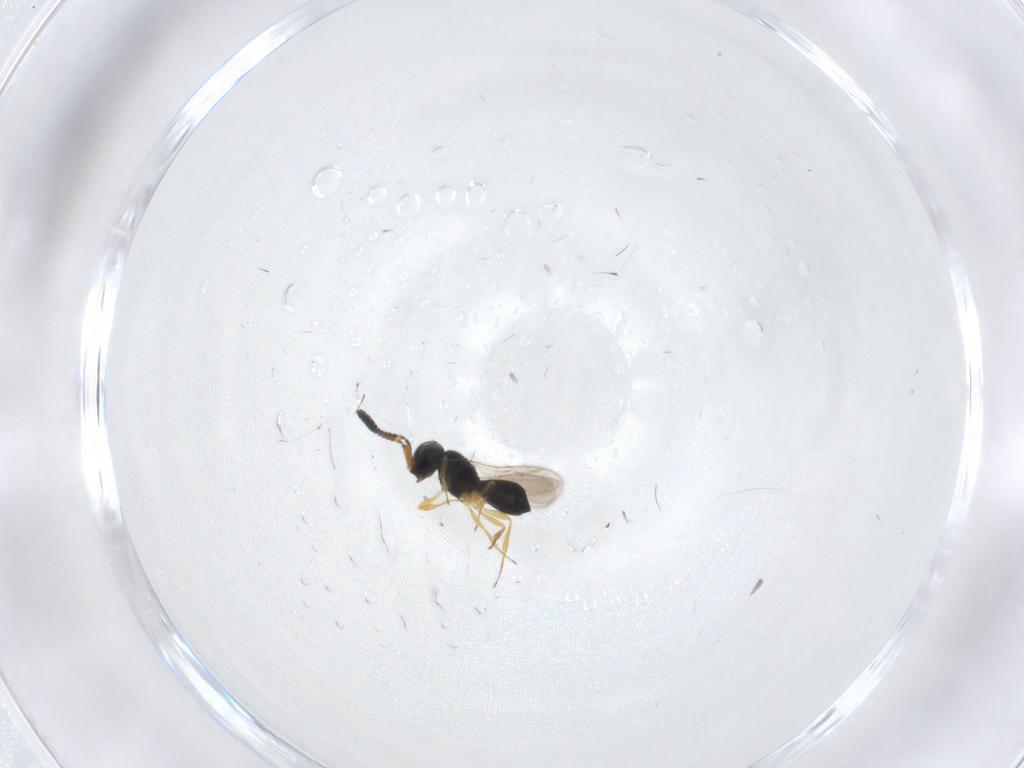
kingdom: Animalia
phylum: Arthropoda
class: Insecta
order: Hymenoptera
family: Scelionidae
